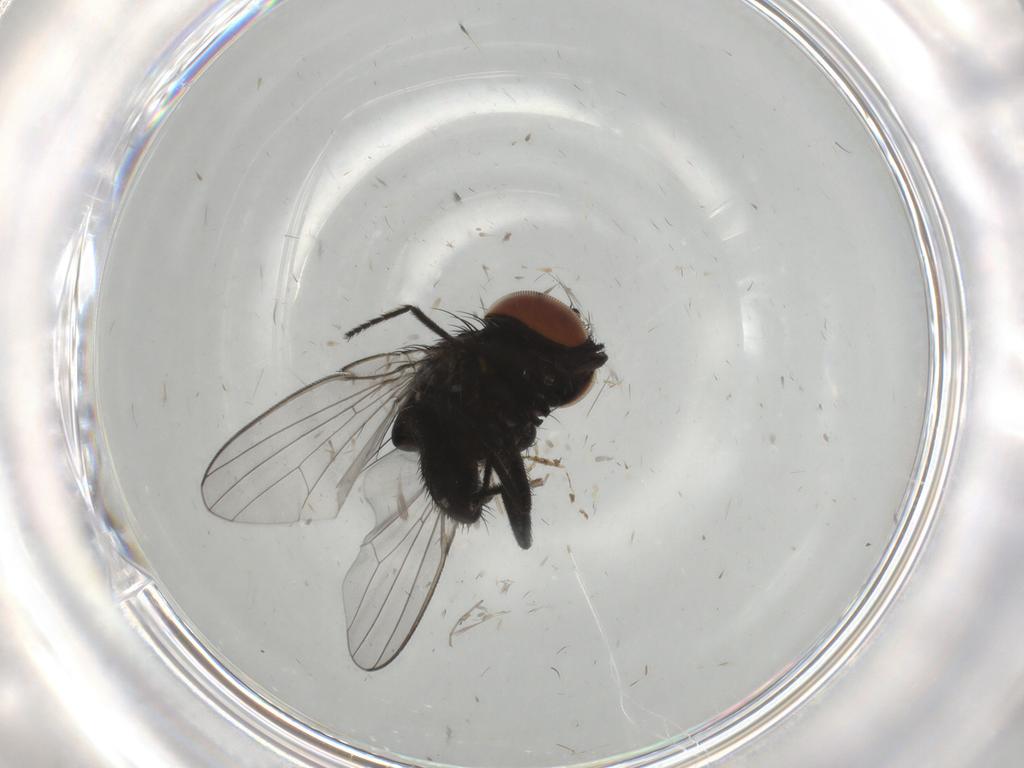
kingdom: Animalia
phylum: Arthropoda
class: Insecta
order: Diptera
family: Milichiidae
